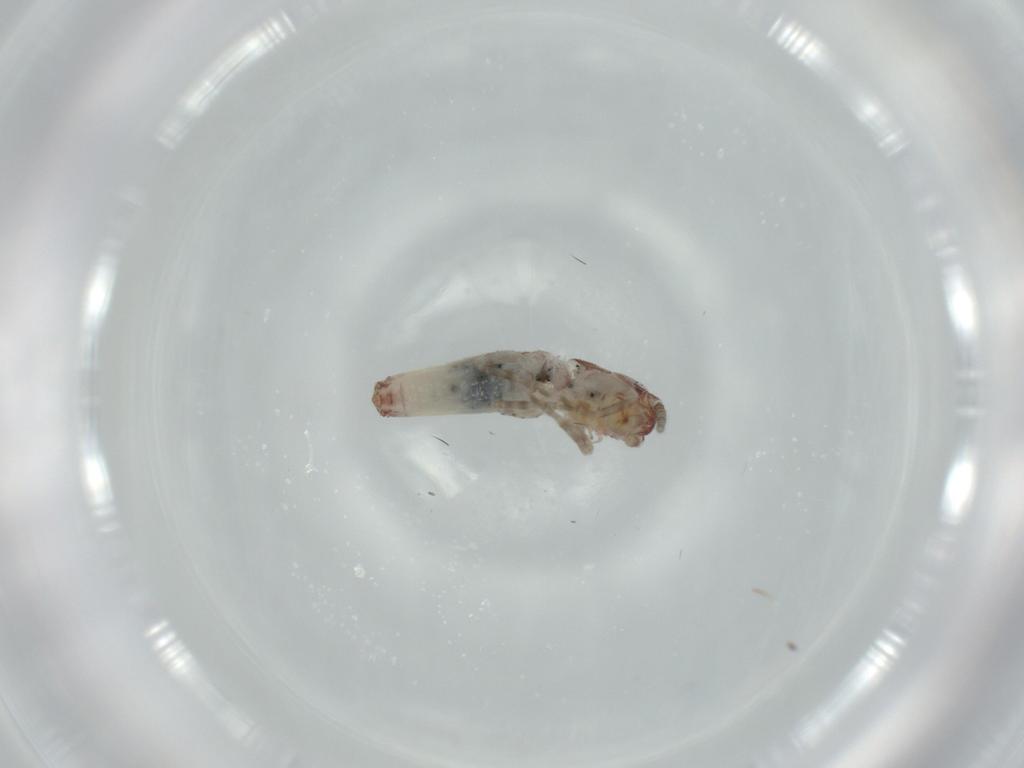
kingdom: Animalia
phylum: Arthropoda
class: Insecta
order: Orthoptera
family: Gryllidae
